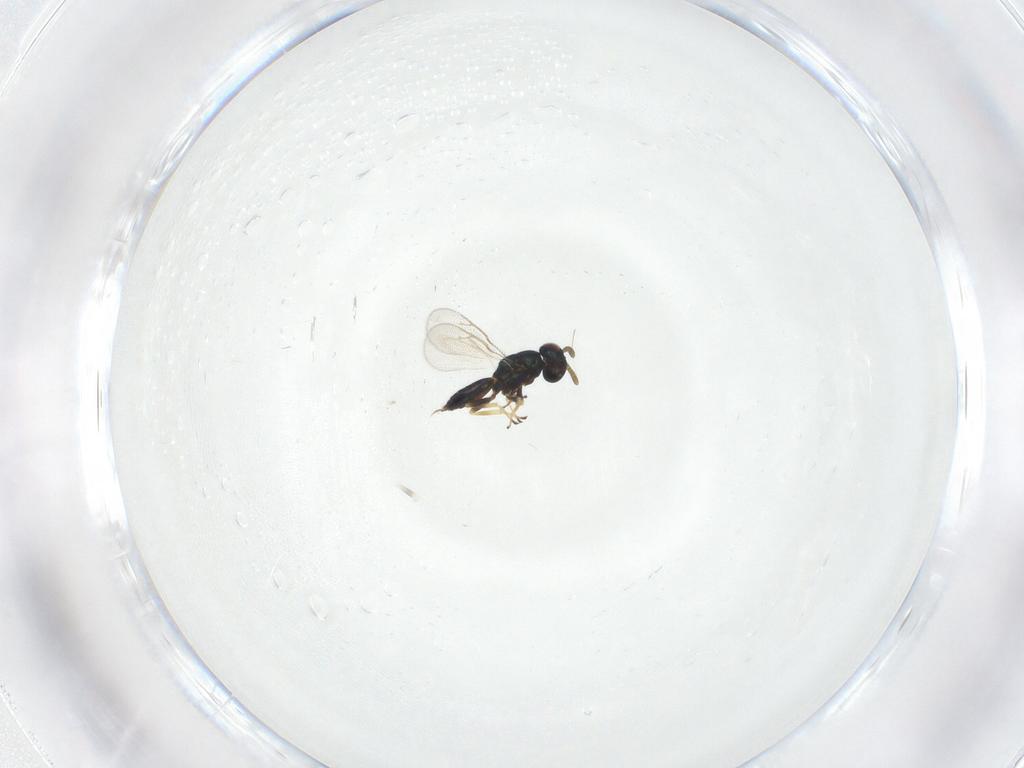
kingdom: Animalia
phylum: Arthropoda
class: Insecta
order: Hymenoptera
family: Pteromalidae
